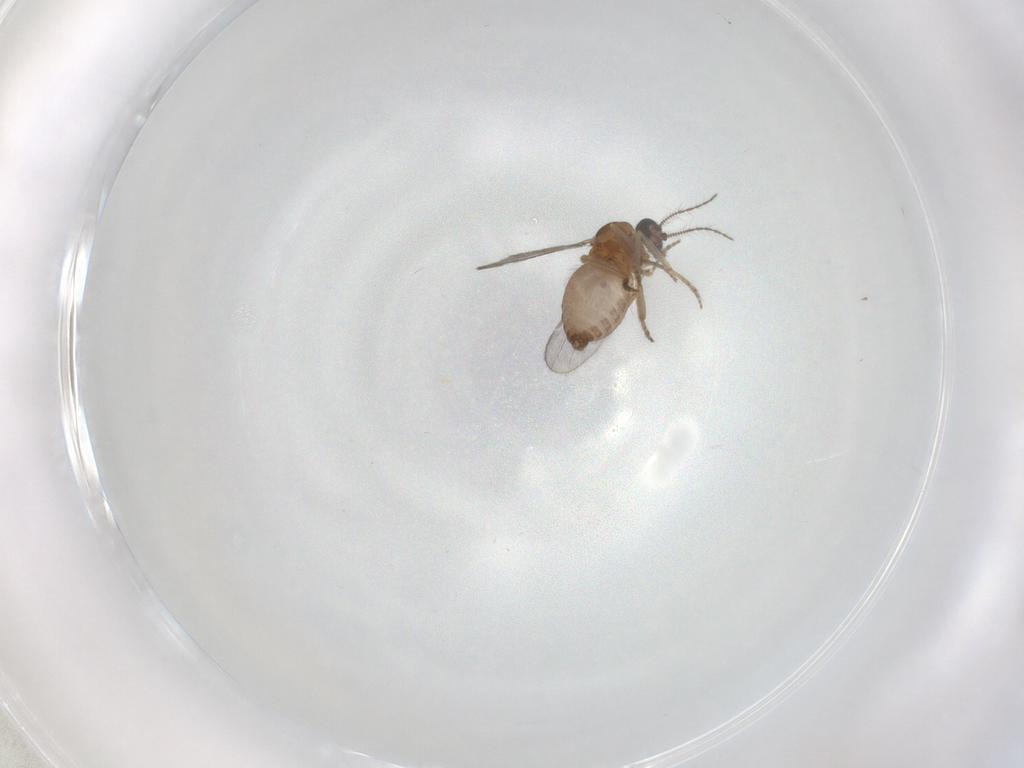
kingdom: Animalia
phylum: Arthropoda
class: Insecta
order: Diptera
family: Ceratopogonidae
